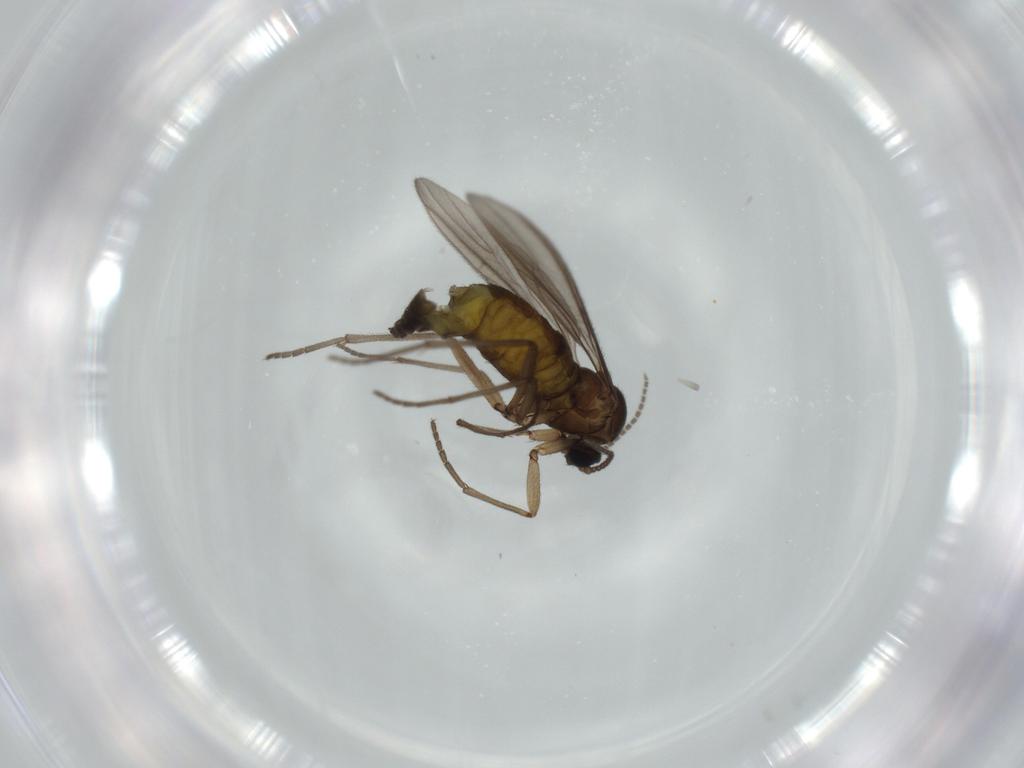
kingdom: Animalia
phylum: Arthropoda
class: Insecta
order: Diptera
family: Sciaridae
